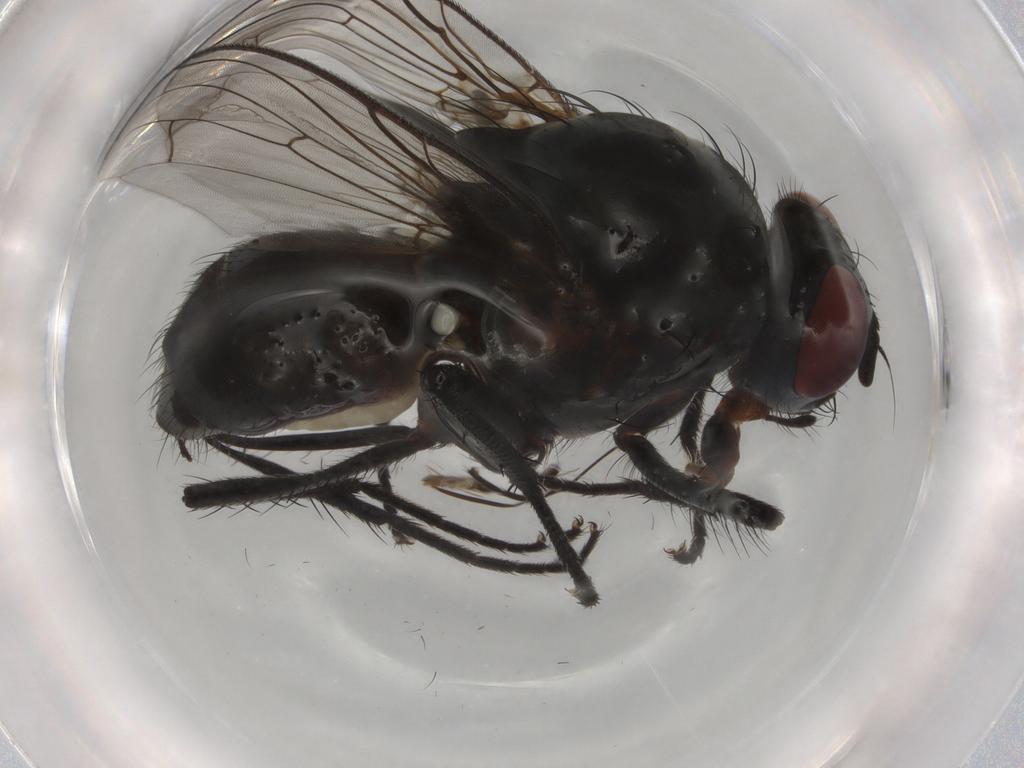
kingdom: Animalia
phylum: Arthropoda
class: Insecta
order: Diptera
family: Anthomyiidae
